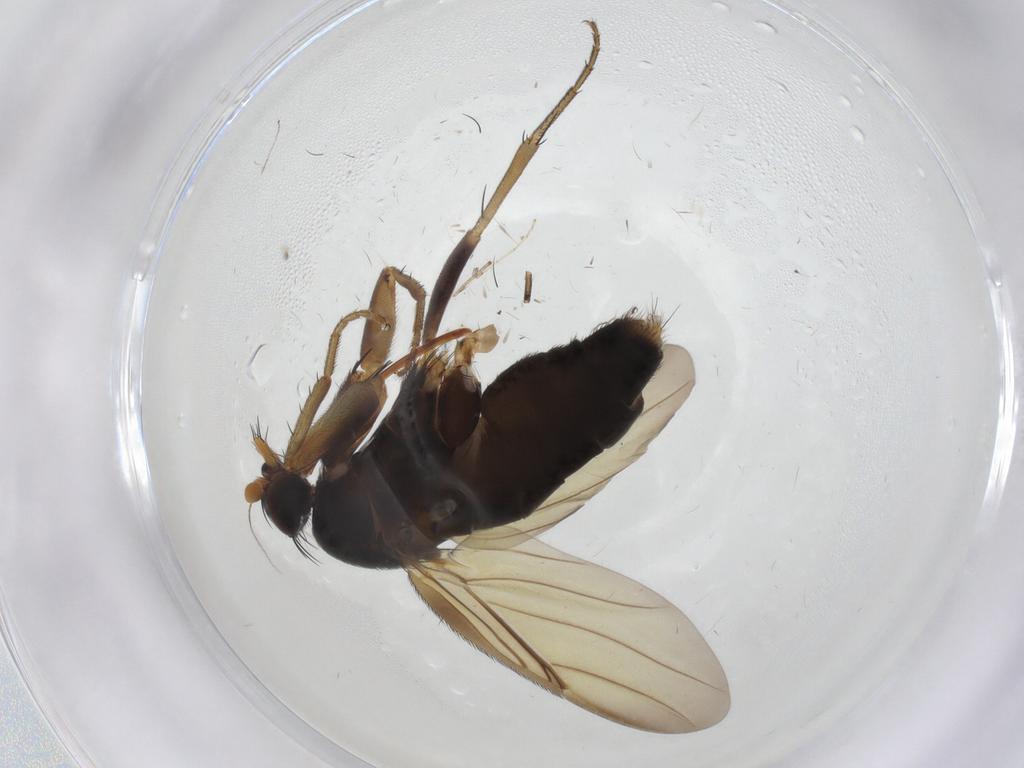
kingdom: Animalia
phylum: Arthropoda
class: Insecta
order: Diptera
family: Phoridae
